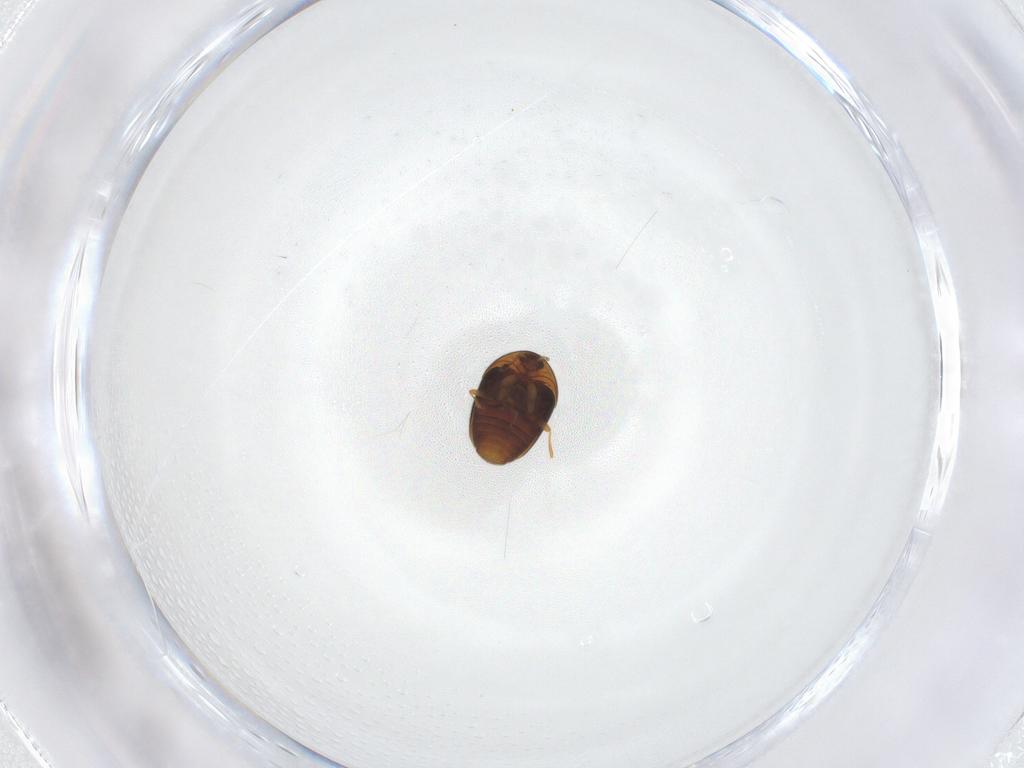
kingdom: Animalia
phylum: Arthropoda
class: Insecta
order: Coleoptera
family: Corylophidae
